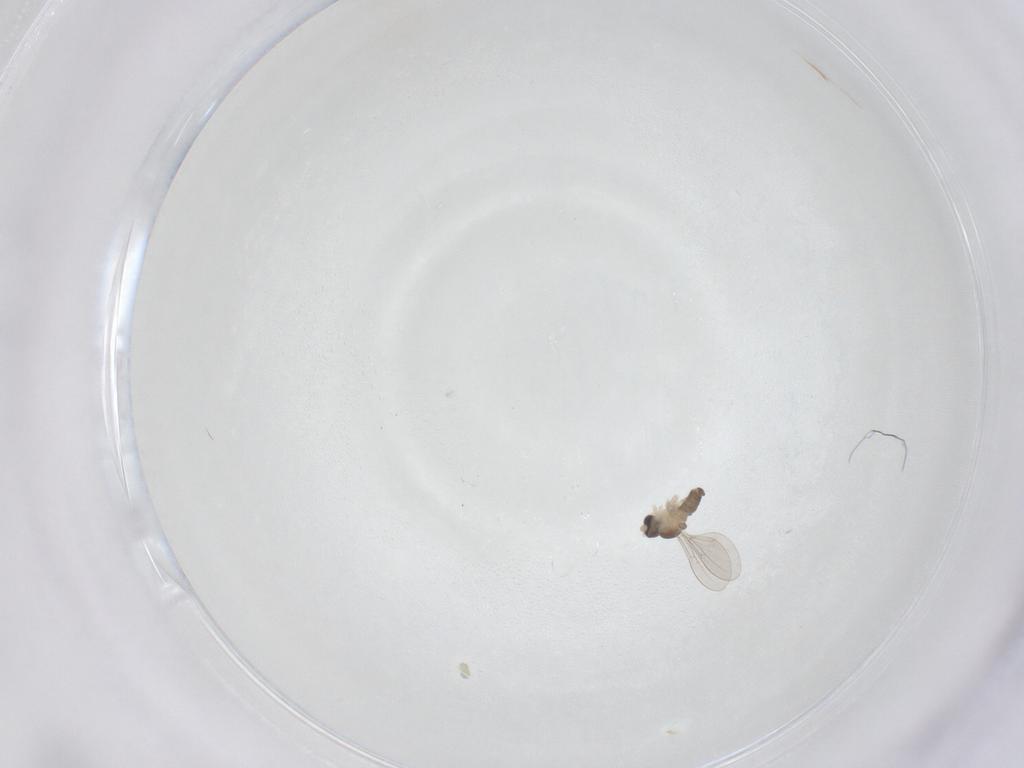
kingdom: Animalia
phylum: Arthropoda
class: Insecta
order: Diptera
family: Cecidomyiidae
